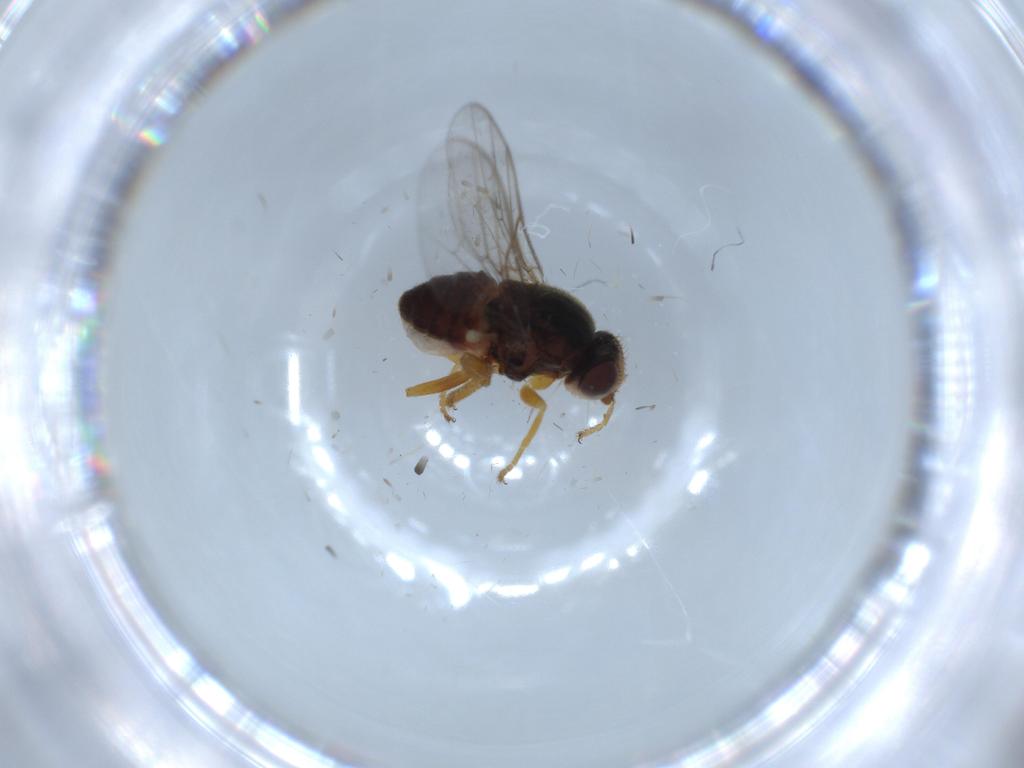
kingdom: Animalia
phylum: Arthropoda
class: Insecta
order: Diptera
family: Chloropidae
